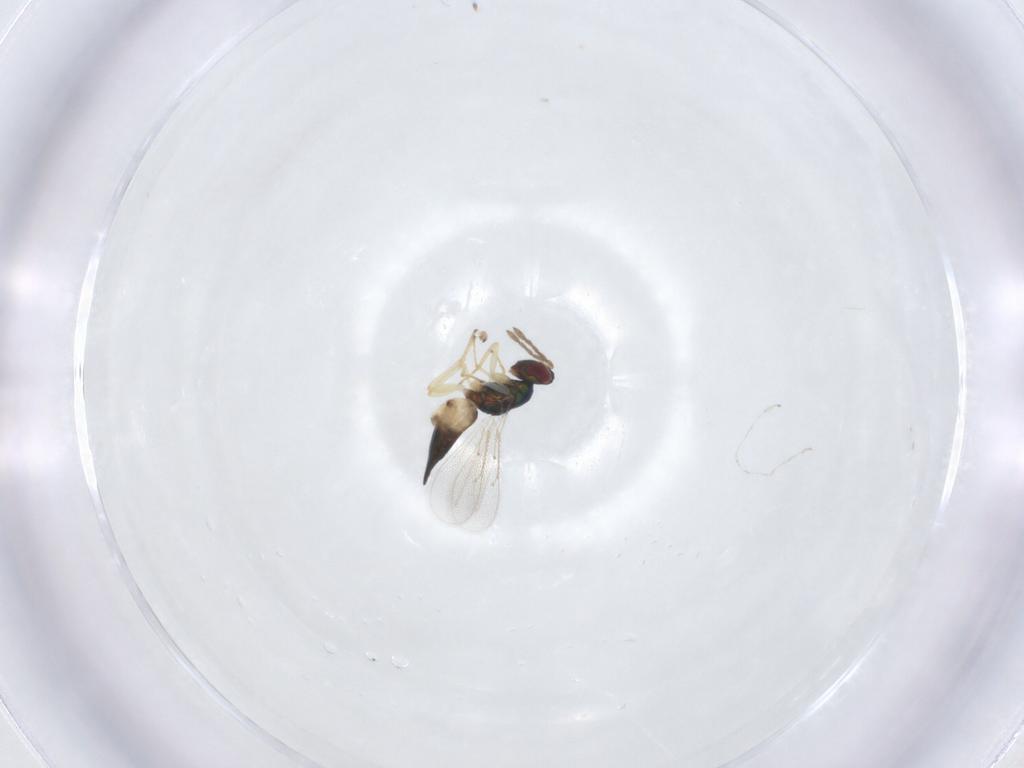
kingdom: Animalia
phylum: Arthropoda
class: Insecta
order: Hymenoptera
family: Eulophidae
